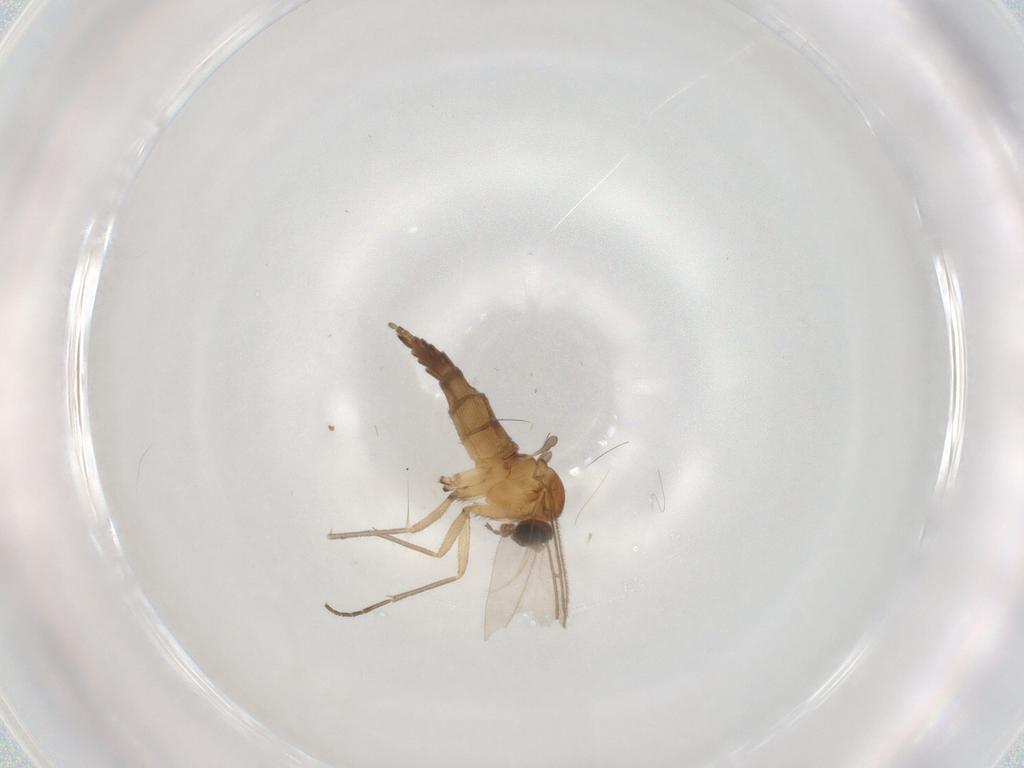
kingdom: Animalia
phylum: Arthropoda
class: Insecta
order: Diptera
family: Sciaridae
